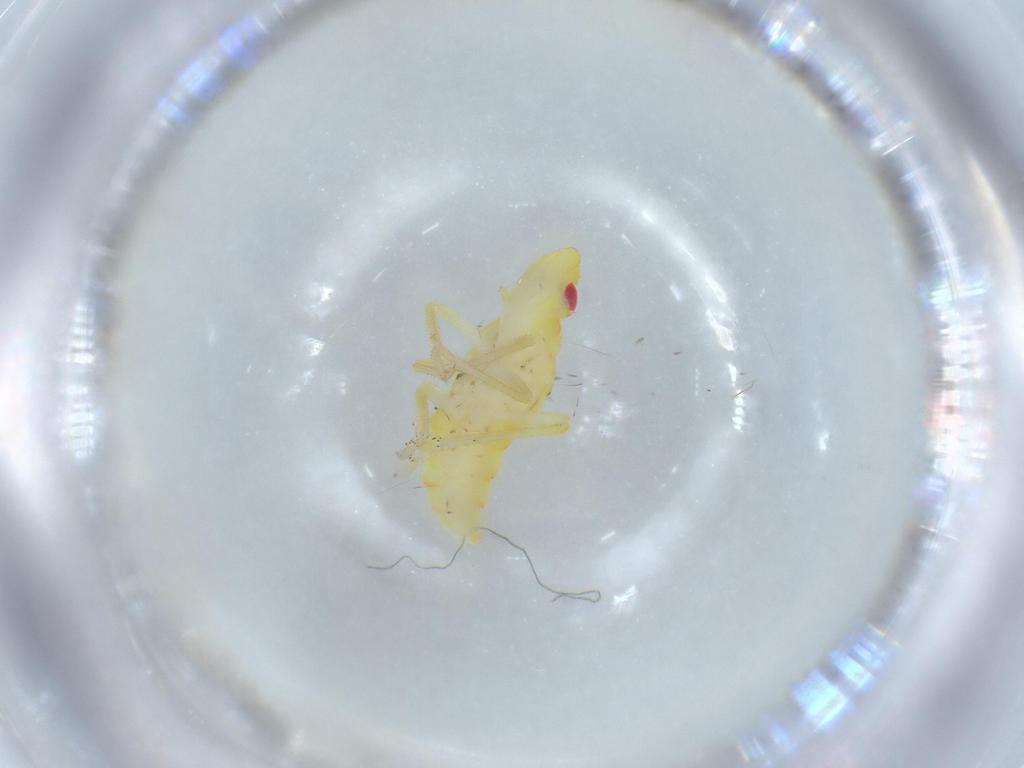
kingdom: Animalia
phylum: Arthropoda
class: Insecta
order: Hemiptera
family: Tropiduchidae
